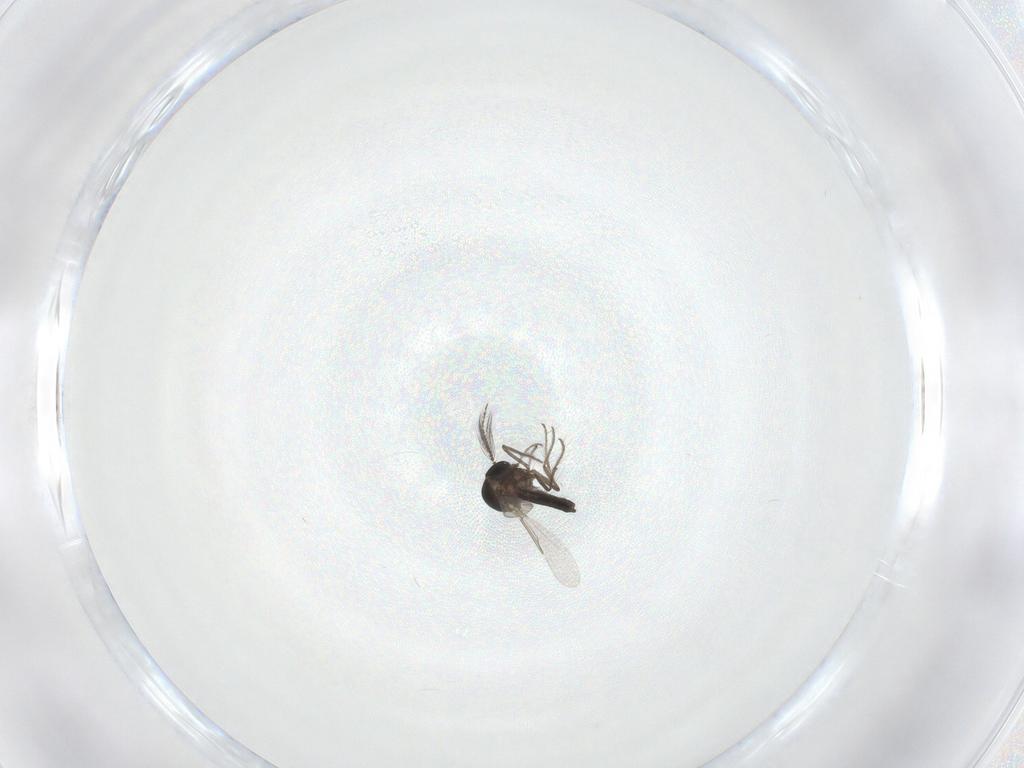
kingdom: Animalia
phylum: Arthropoda
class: Insecta
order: Diptera
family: Ceratopogonidae
